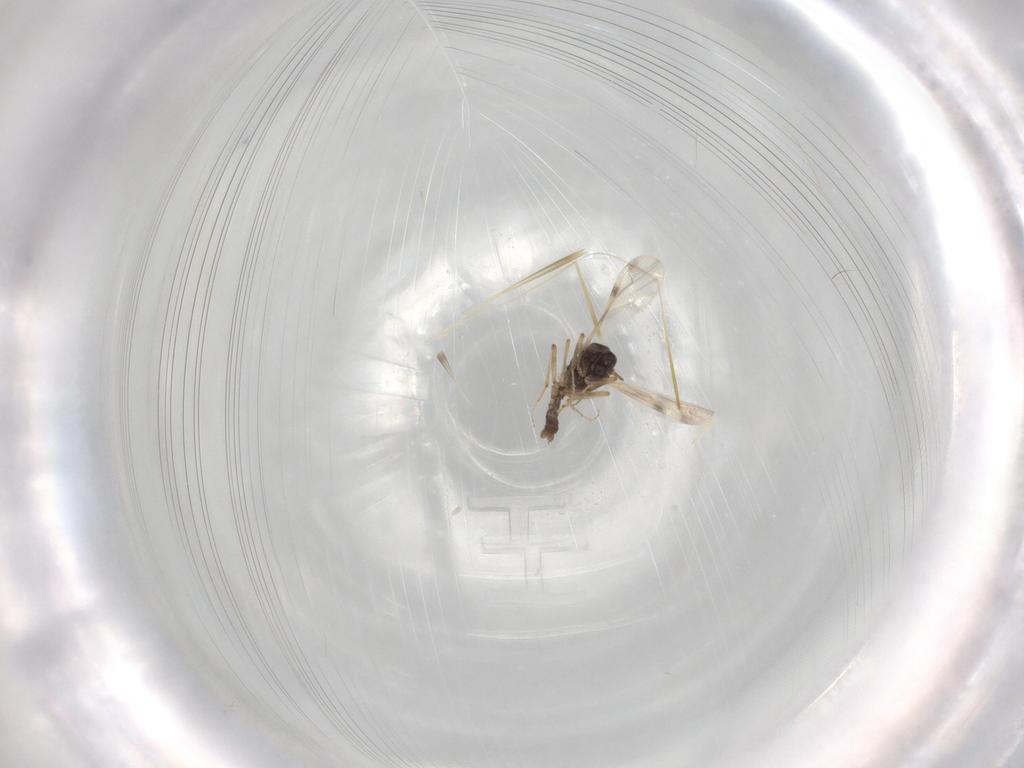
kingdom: Animalia
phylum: Arthropoda
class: Insecta
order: Diptera
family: Ceratopogonidae
